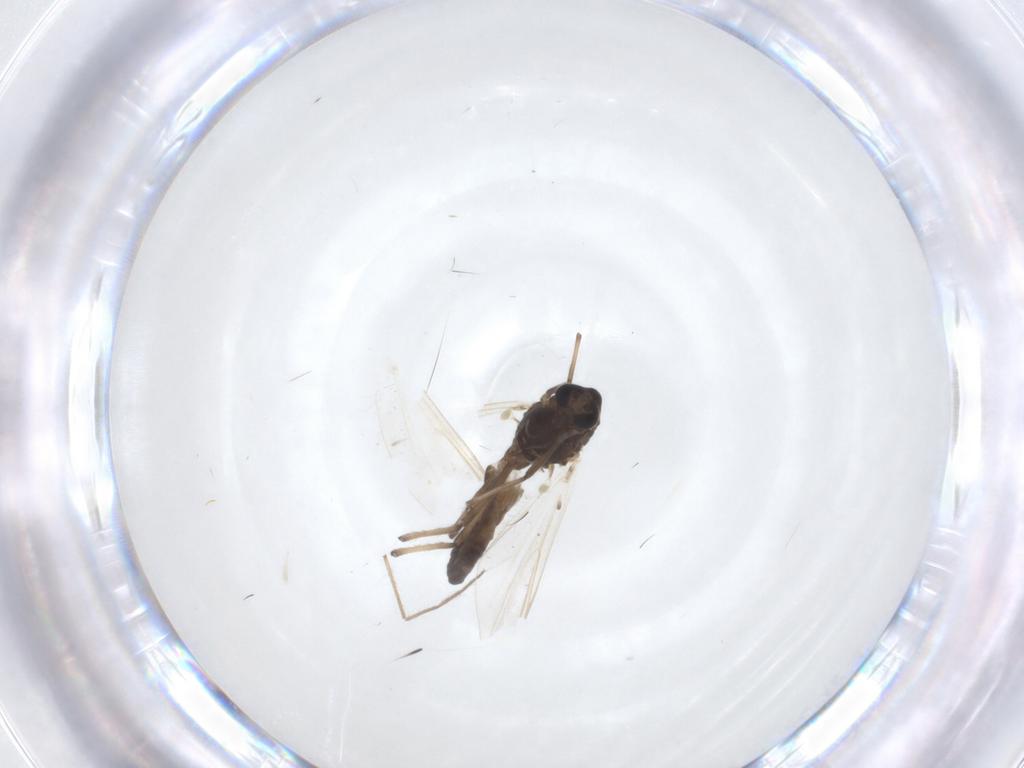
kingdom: Animalia
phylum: Arthropoda
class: Insecta
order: Diptera
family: Chironomidae
